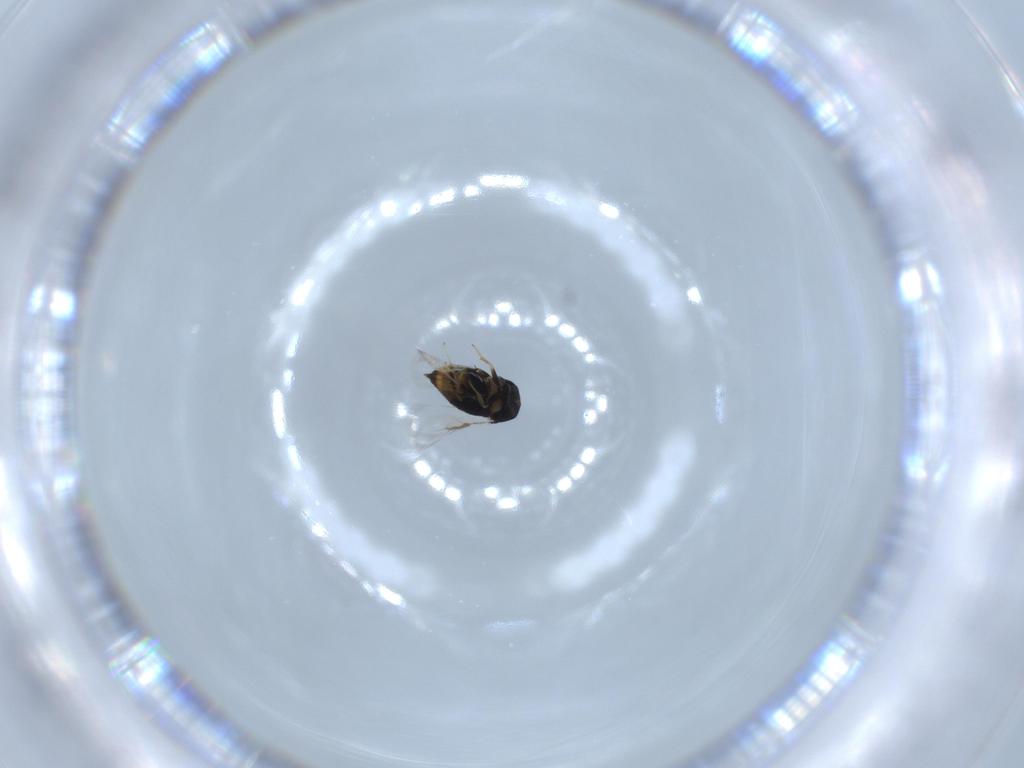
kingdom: Animalia
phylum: Arthropoda
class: Insecta
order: Hymenoptera
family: Signiphoridae
